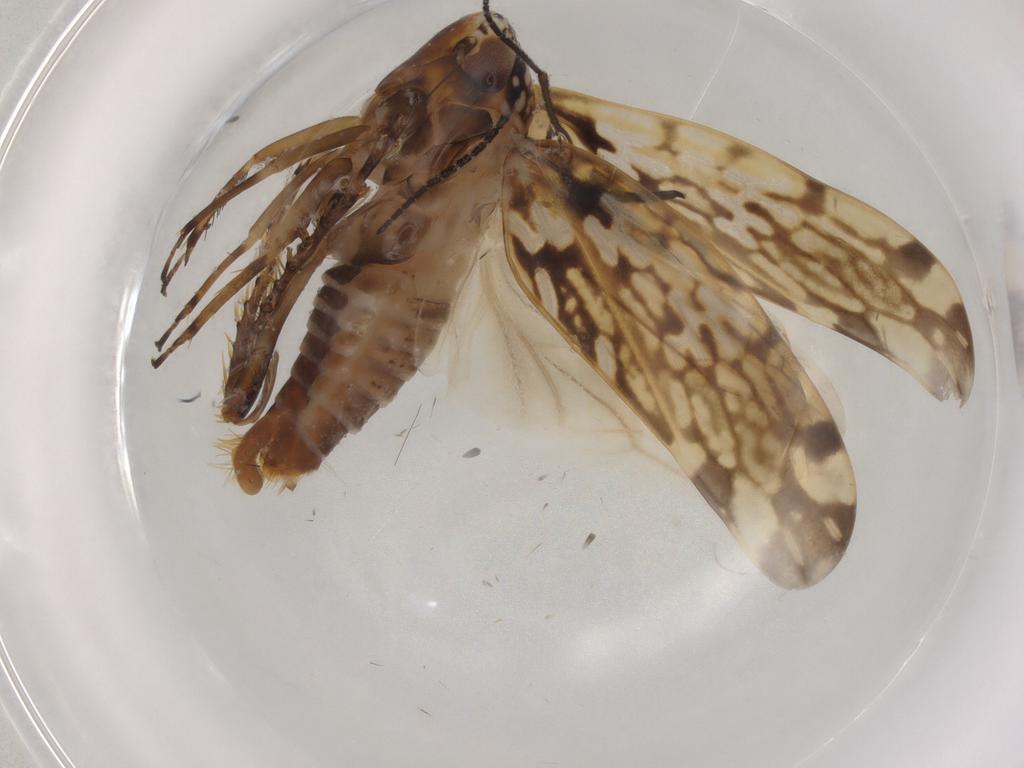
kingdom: Animalia
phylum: Arthropoda
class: Insecta
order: Hemiptera
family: Cicadellidae
